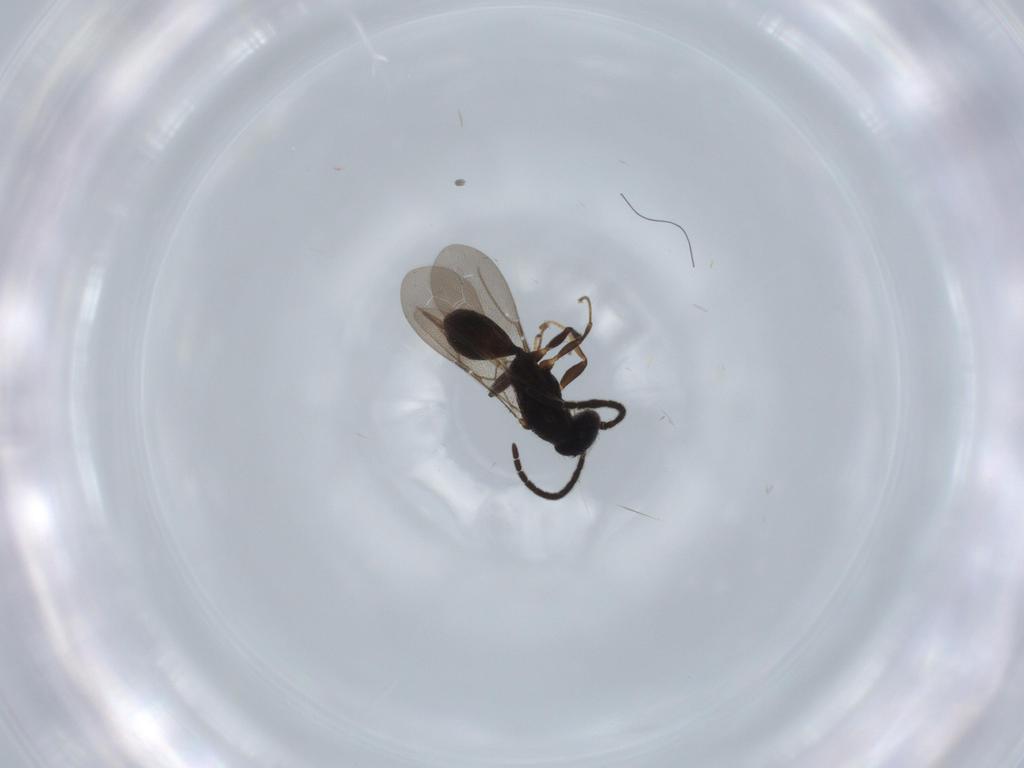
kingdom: Animalia
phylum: Arthropoda
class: Insecta
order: Hymenoptera
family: Bethylidae
